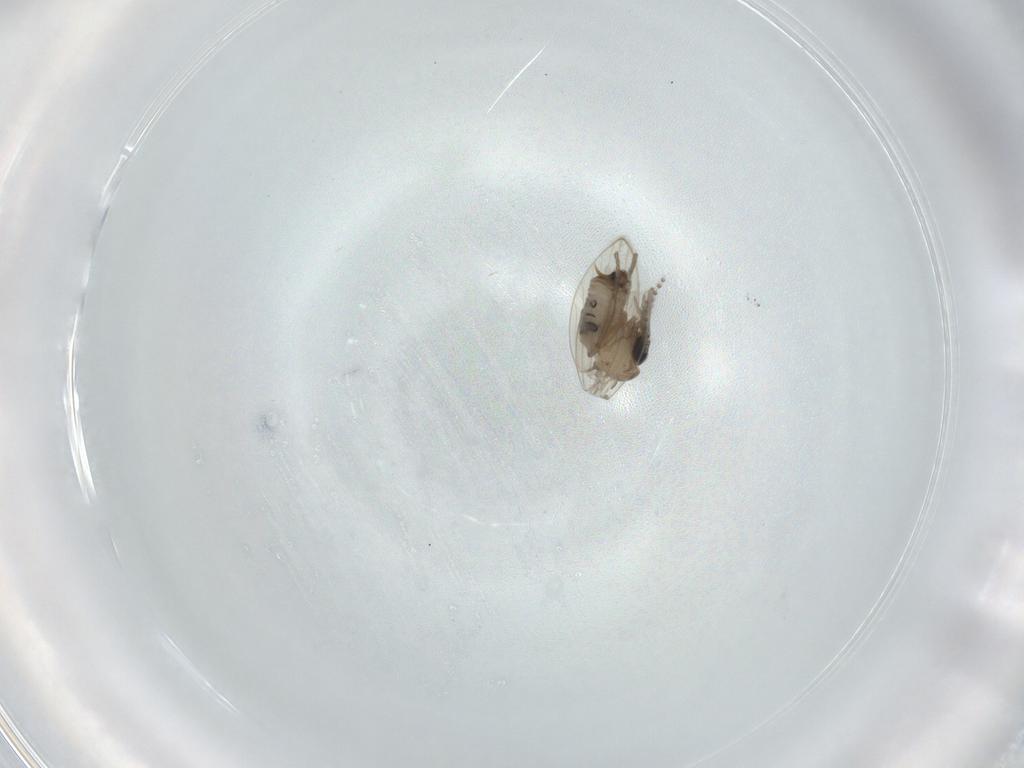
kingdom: Animalia
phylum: Arthropoda
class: Insecta
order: Diptera
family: Psychodidae
